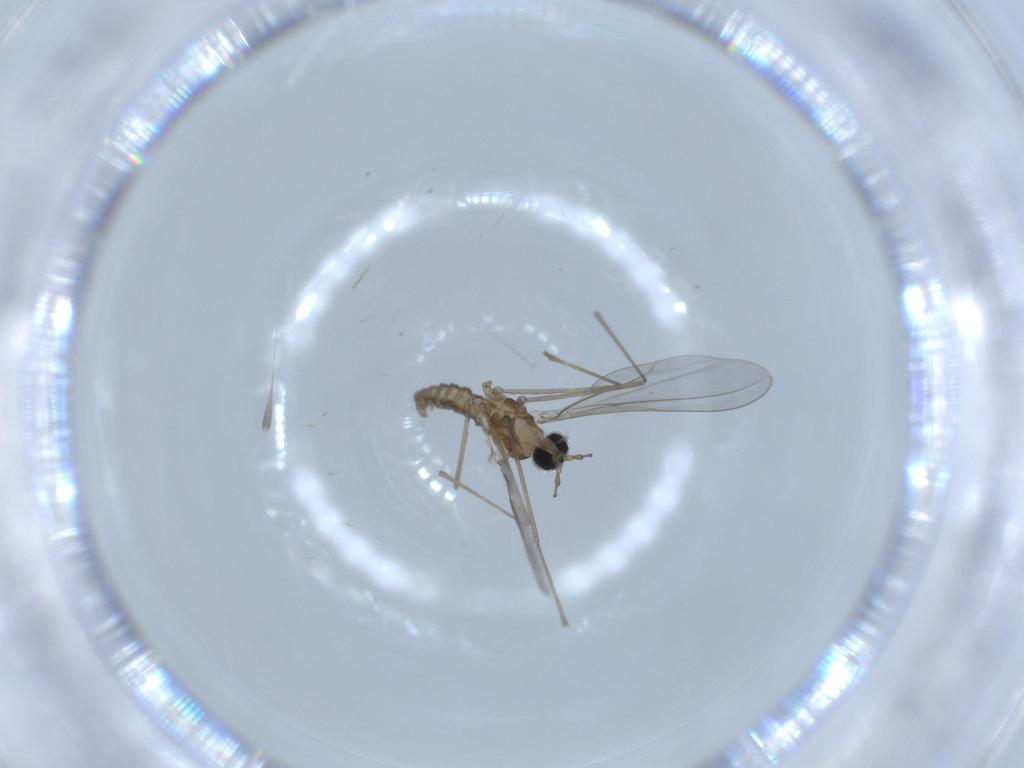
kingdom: Animalia
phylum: Arthropoda
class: Insecta
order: Diptera
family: Cecidomyiidae
